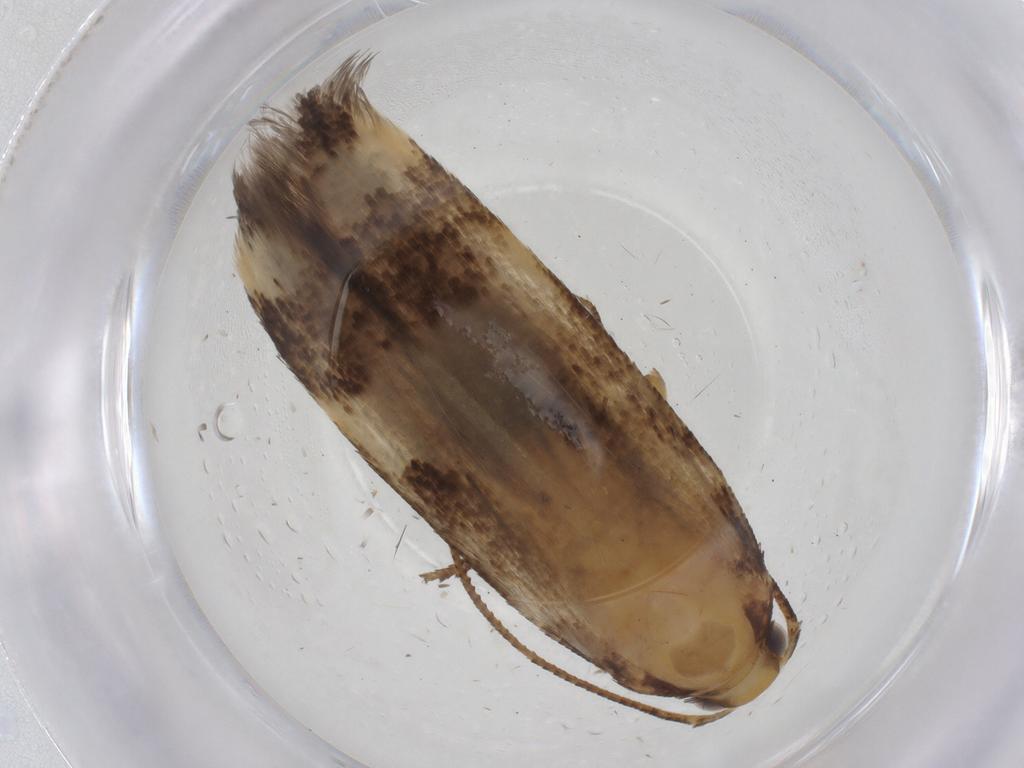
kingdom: Animalia
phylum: Arthropoda
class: Insecta
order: Lepidoptera
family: Gelechiidae
